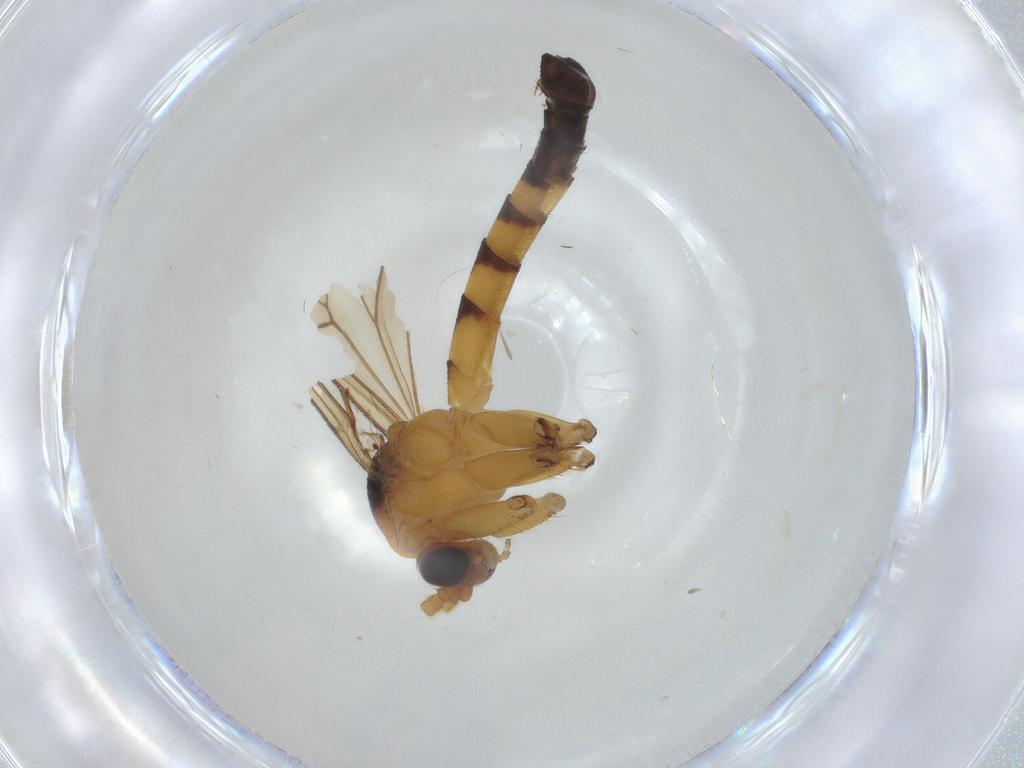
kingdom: Animalia
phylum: Arthropoda
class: Insecta
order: Diptera
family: Mycetophilidae
